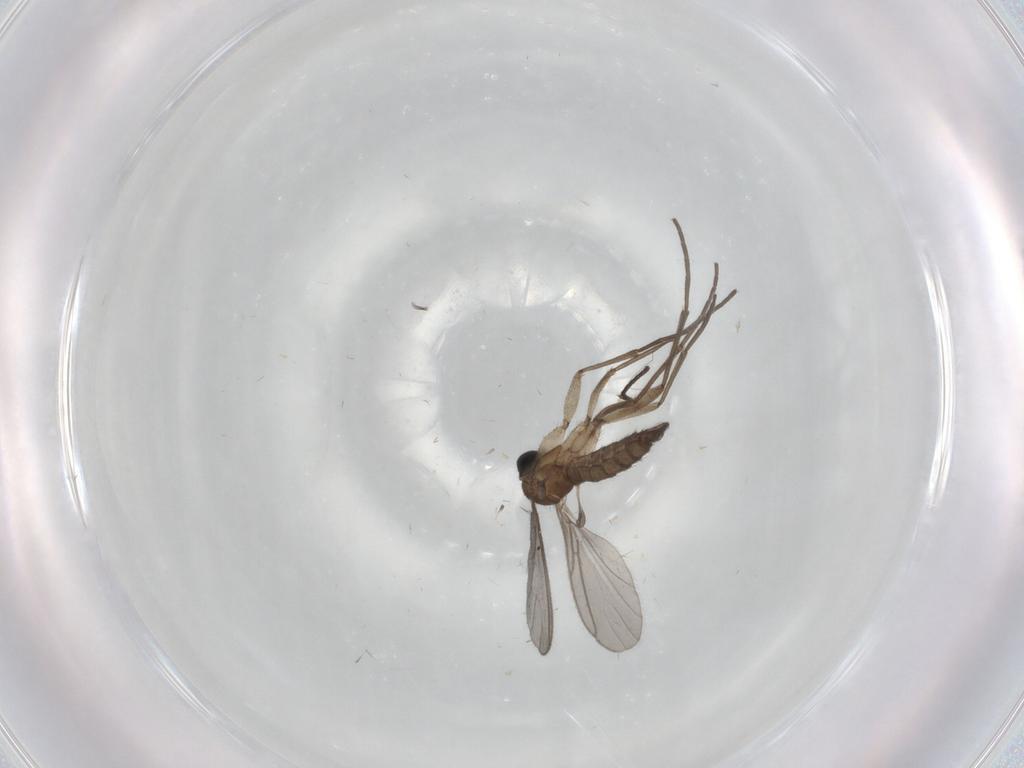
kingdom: Animalia
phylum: Arthropoda
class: Insecta
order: Diptera
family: Sciaridae
